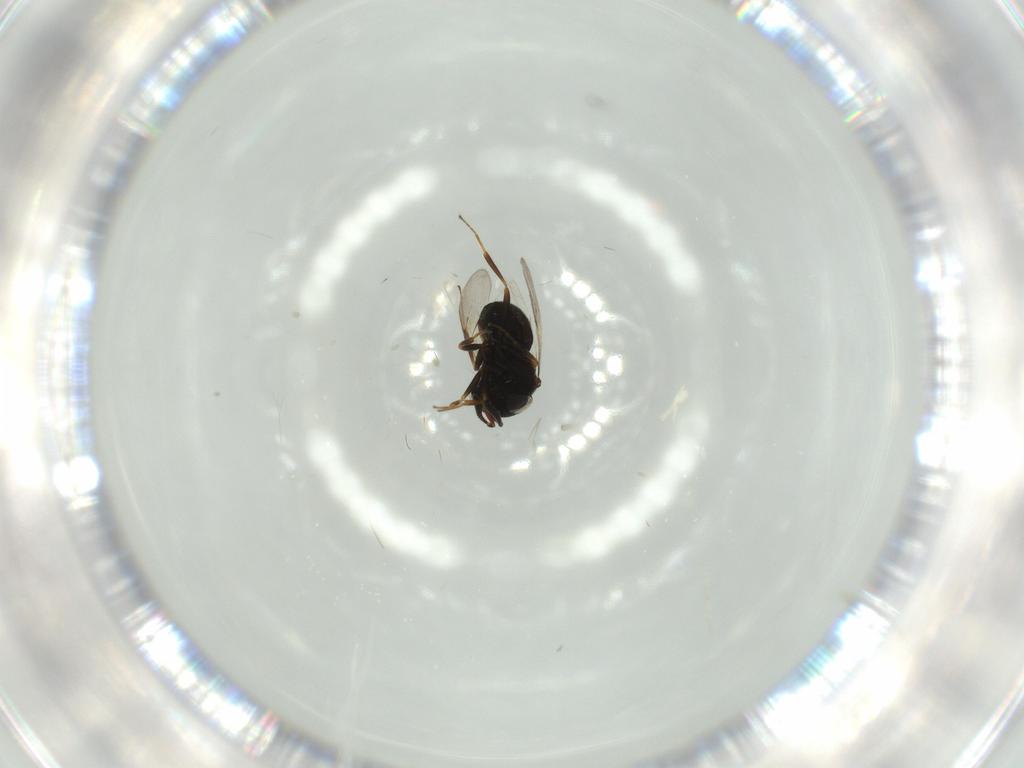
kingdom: Animalia
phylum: Arthropoda
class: Insecta
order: Hymenoptera
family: Scelionidae
